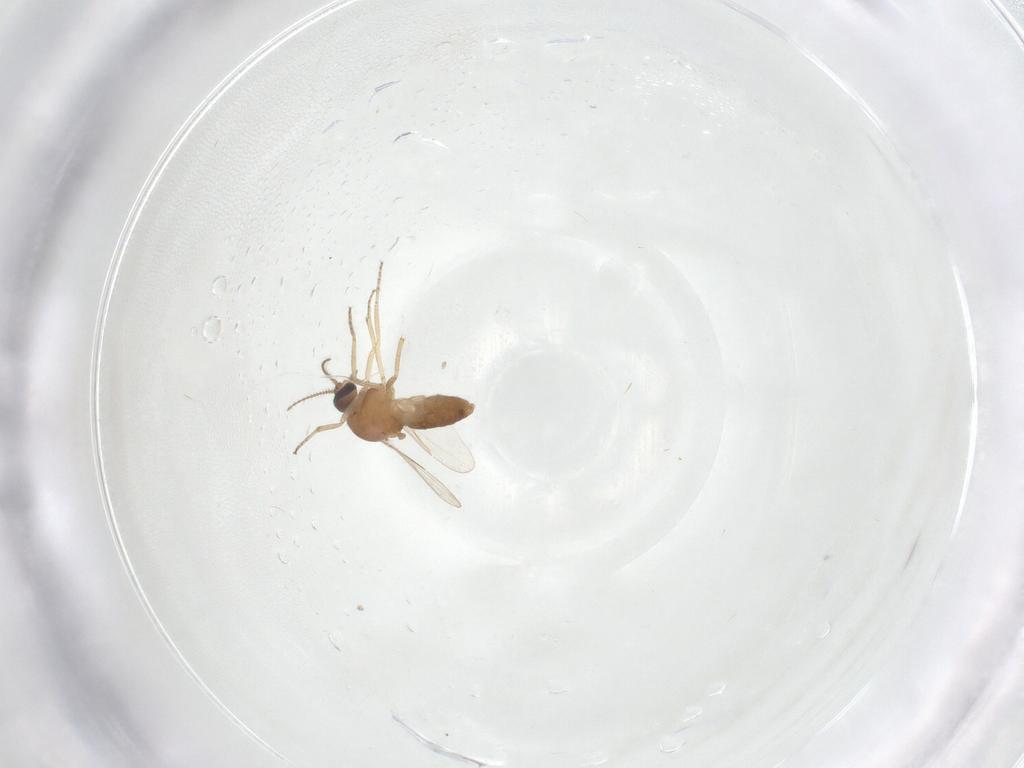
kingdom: Animalia
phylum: Arthropoda
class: Insecta
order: Diptera
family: Ceratopogonidae
